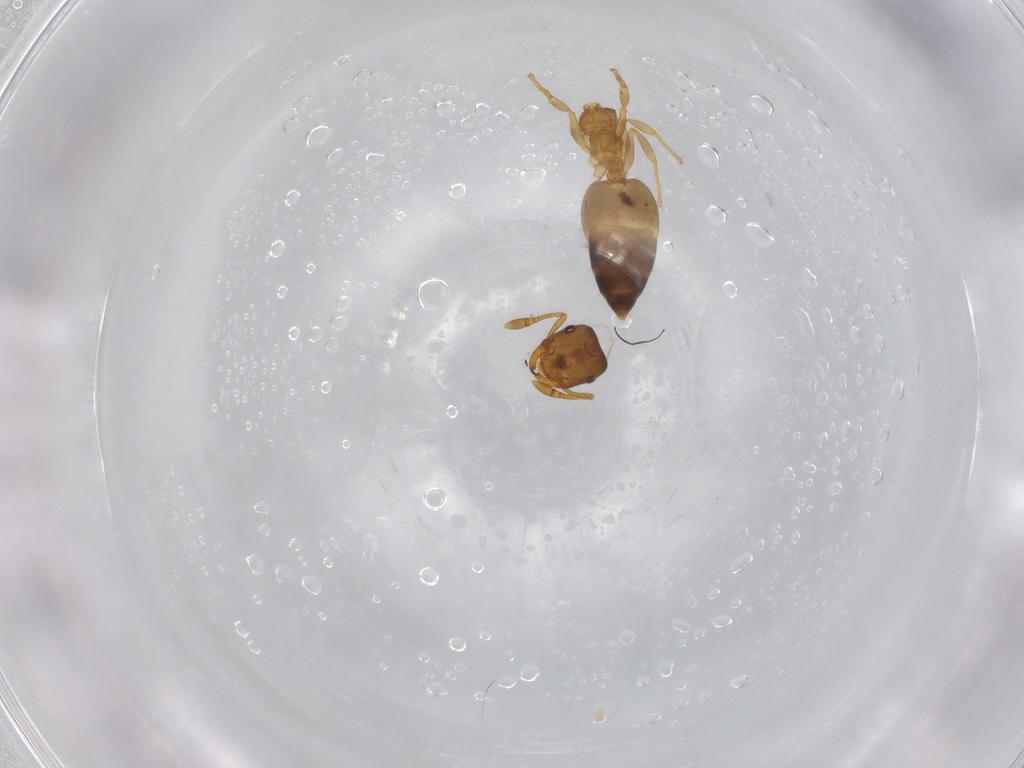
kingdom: Animalia
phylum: Arthropoda
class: Insecta
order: Hymenoptera
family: Formicidae
